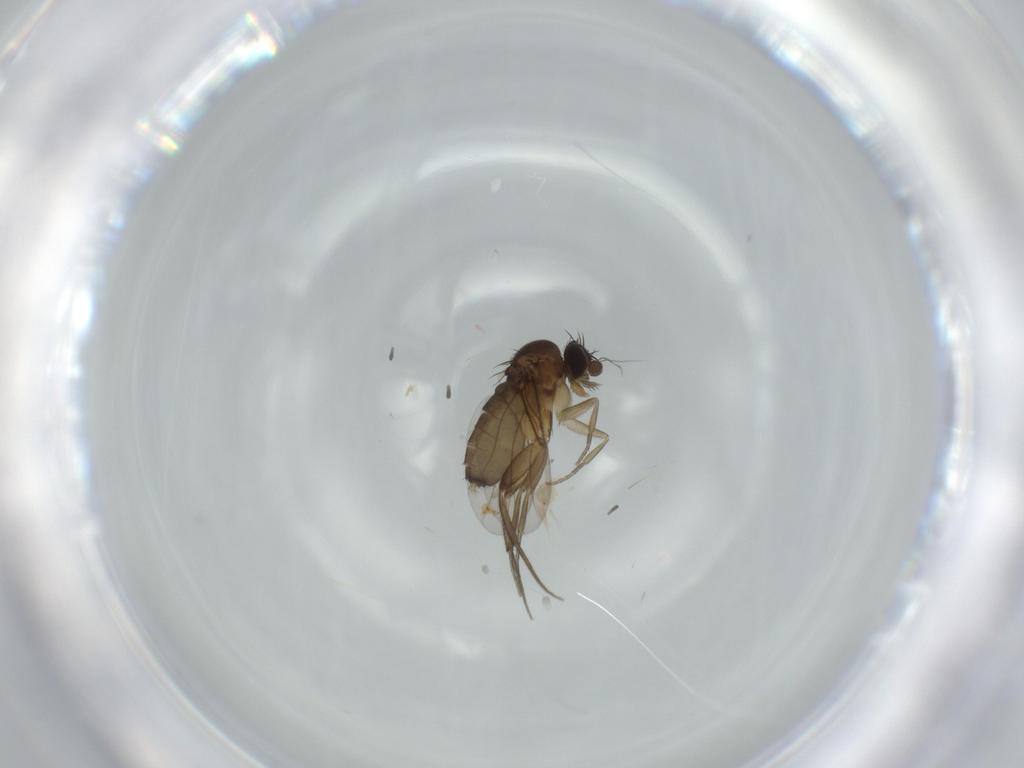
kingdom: Animalia
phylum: Arthropoda
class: Insecta
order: Diptera
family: Phoridae
